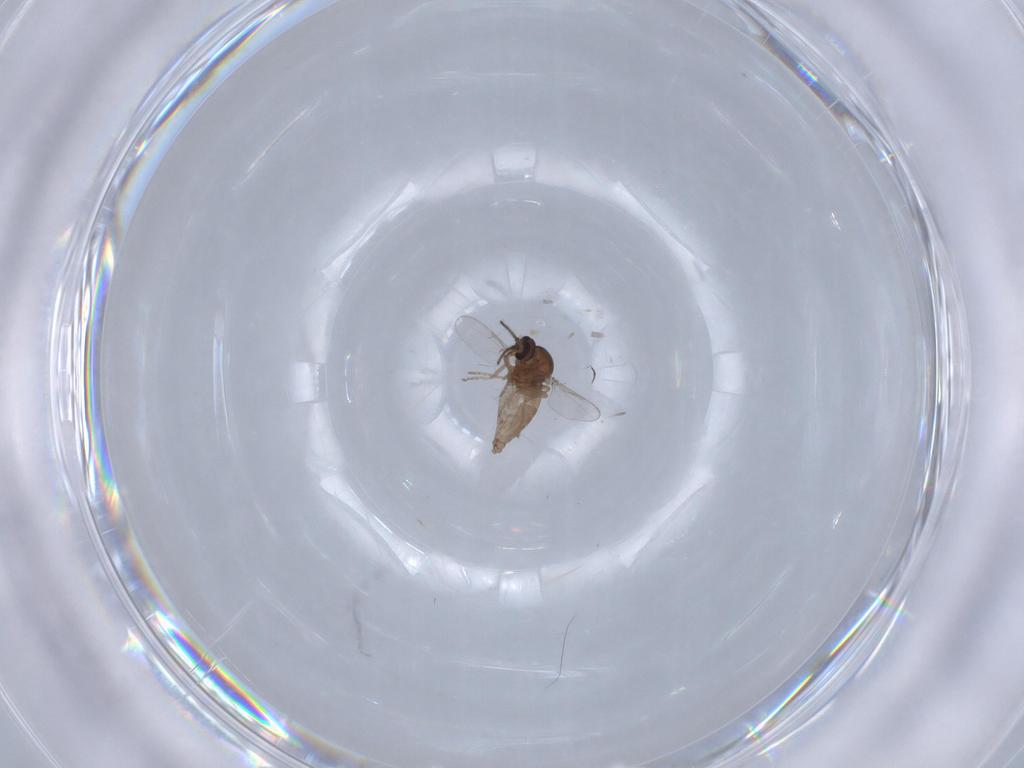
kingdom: Animalia
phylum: Arthropoda
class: Insecta
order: Diptera
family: Ceratopogonidae
